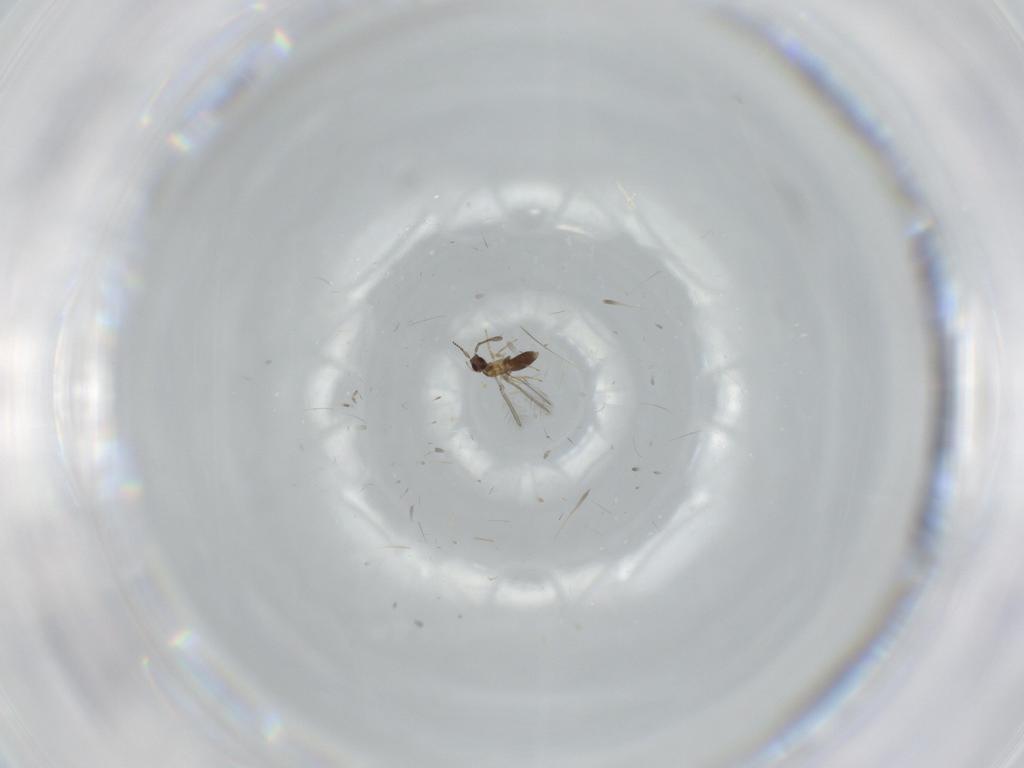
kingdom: Animalia
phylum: Arthropoda
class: Insecta
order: Hymenoptera
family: Mymaridae
